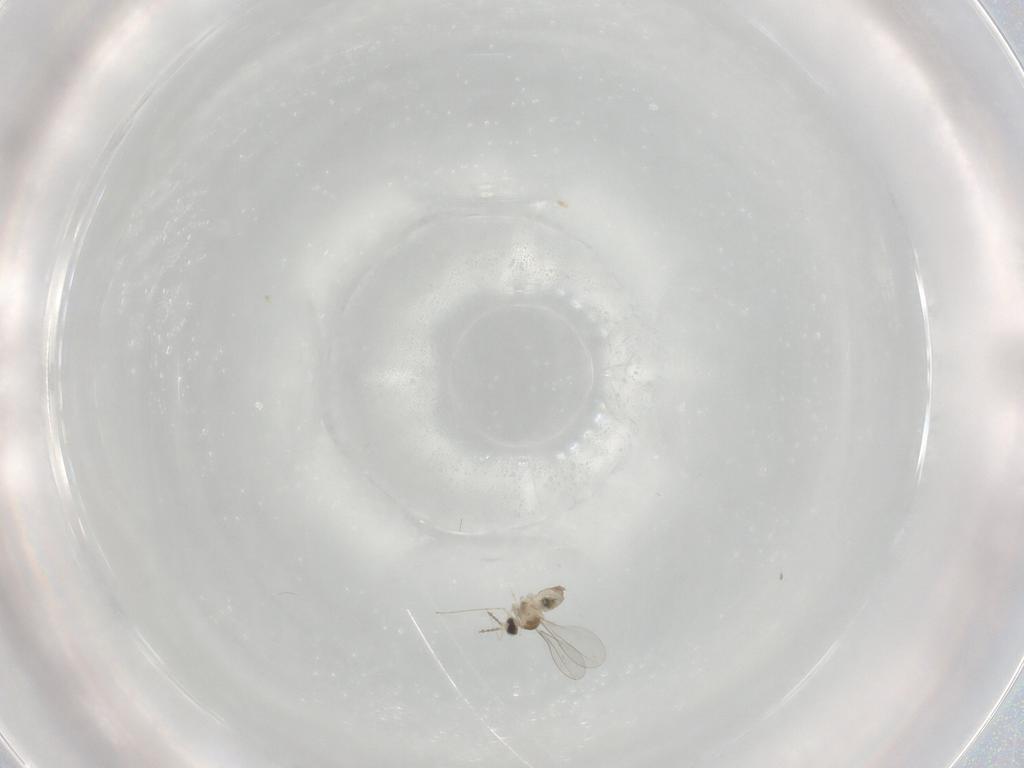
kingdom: Animalia
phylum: Arthropoda
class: Insecta
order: Diptera
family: Cecidomyiidae
